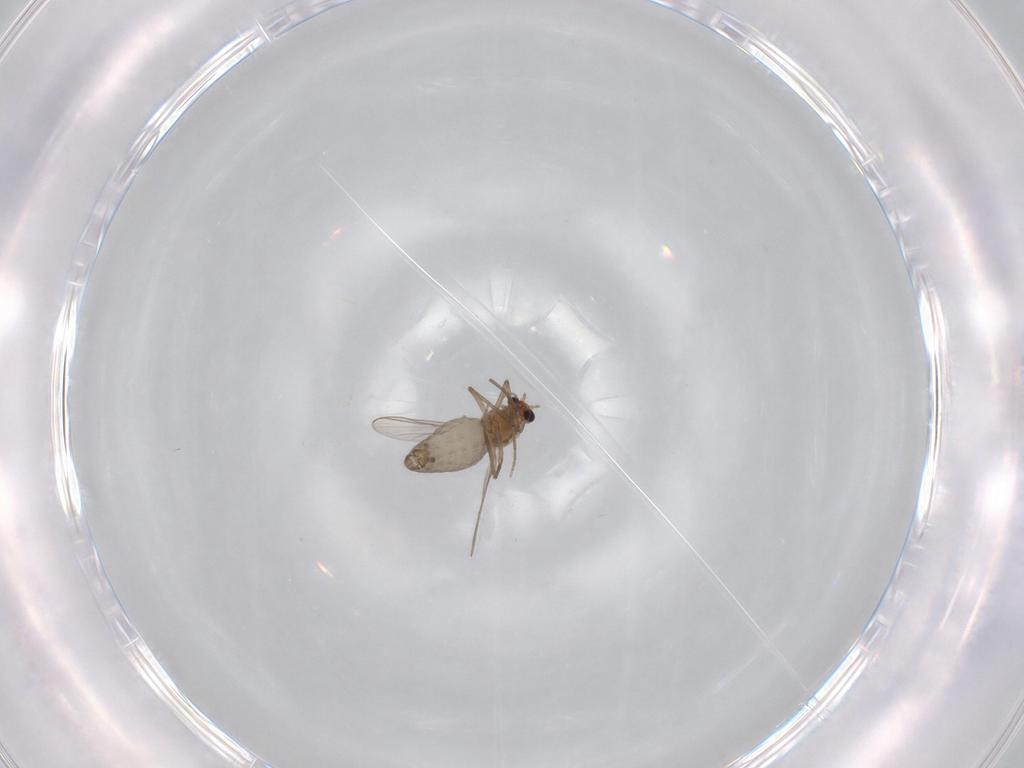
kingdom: Animalia
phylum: Arthropoda
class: Insecta
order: Diptera
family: Chironomidae
